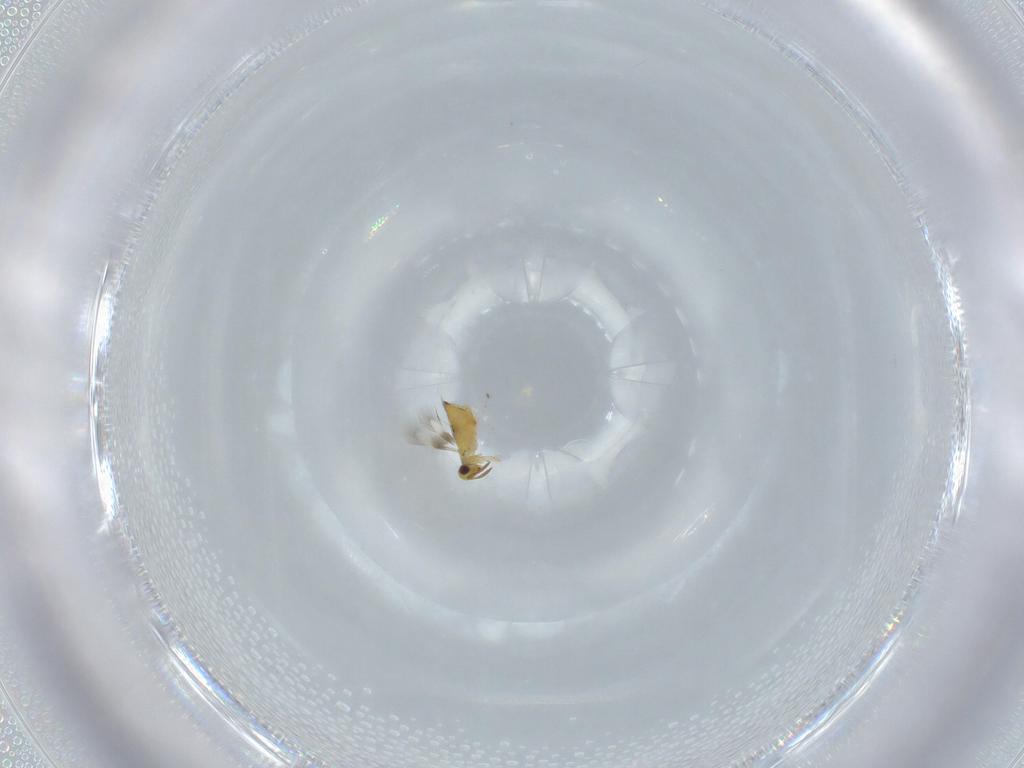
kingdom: Animalia
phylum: Arthropoda
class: Insecta
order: Hymenoptera
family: Signiphoridae
